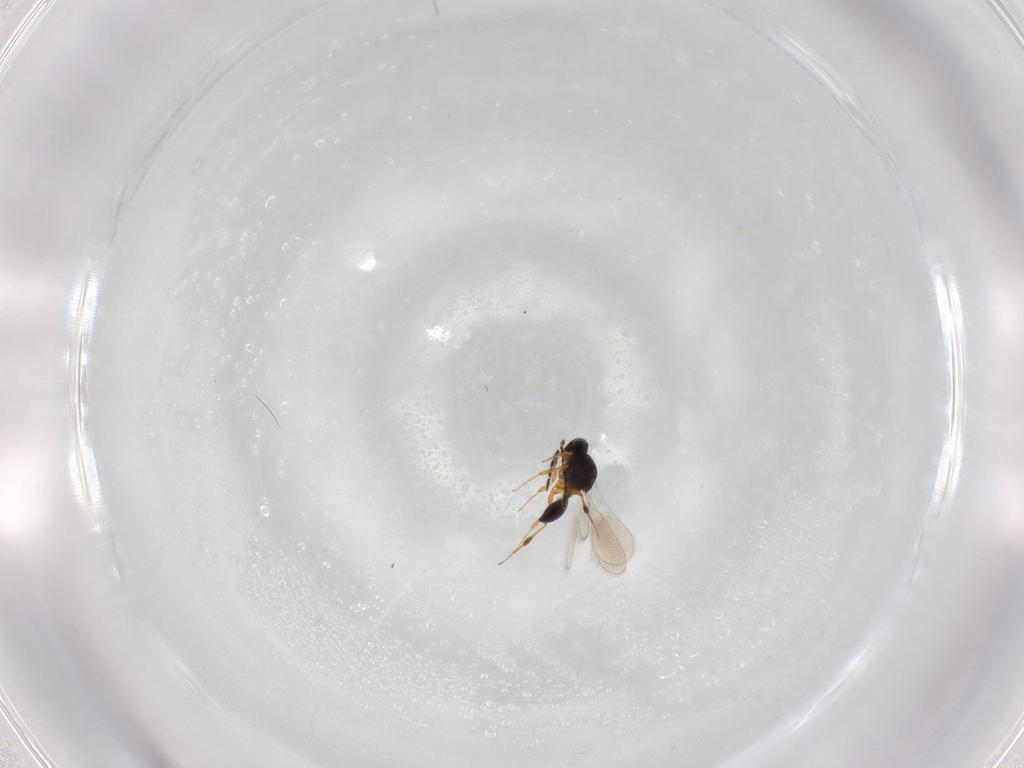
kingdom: Animalia
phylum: Arthropoda
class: Insecta
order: Hymenoptera
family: Platygastridae
